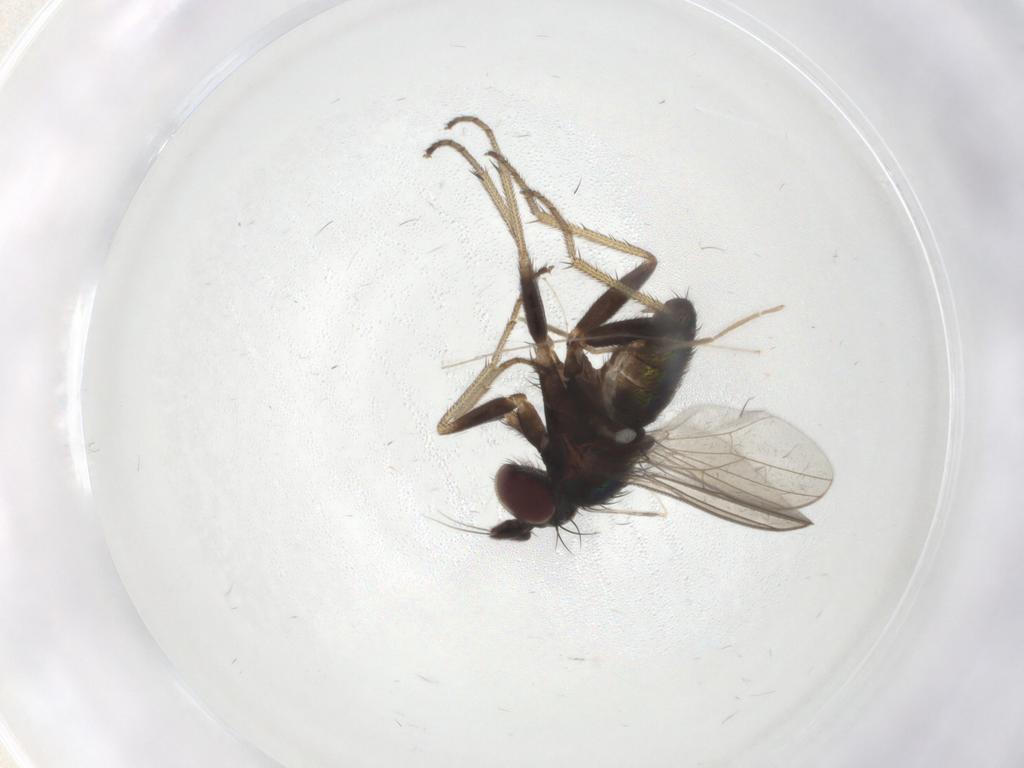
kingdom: Animalia
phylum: Arthropoda
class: Insecta
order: Diptera
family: Dolichopodidae
